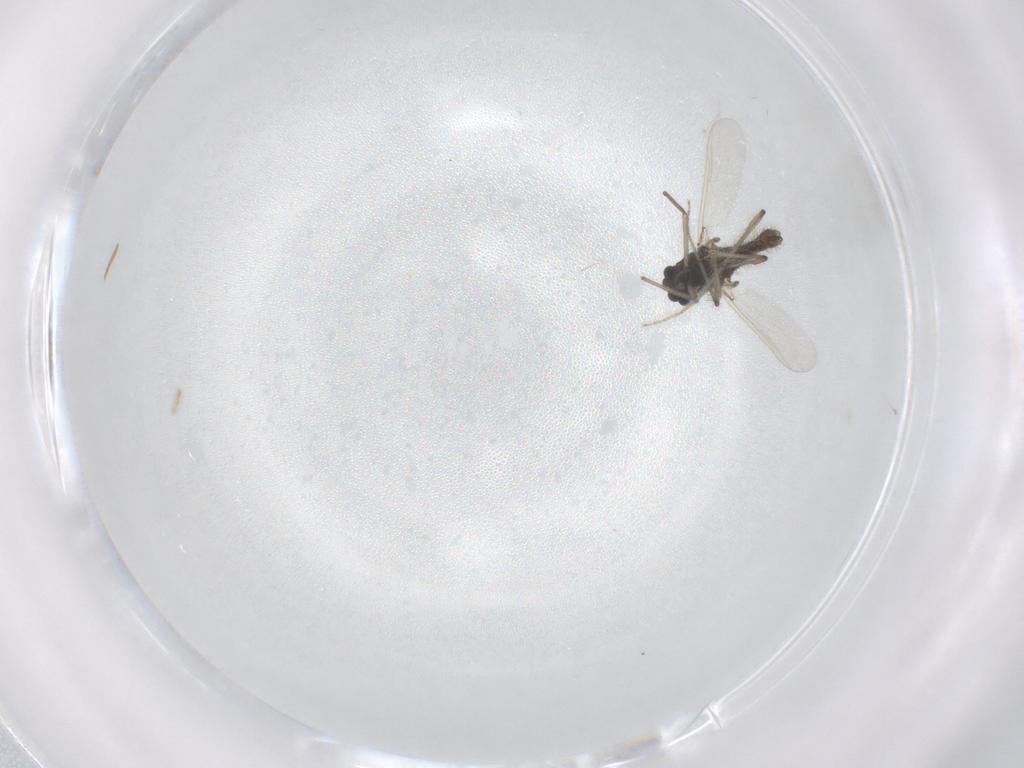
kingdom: Animalia
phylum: Arthropoda
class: Insecta
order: Diptera
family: Chironomidae
